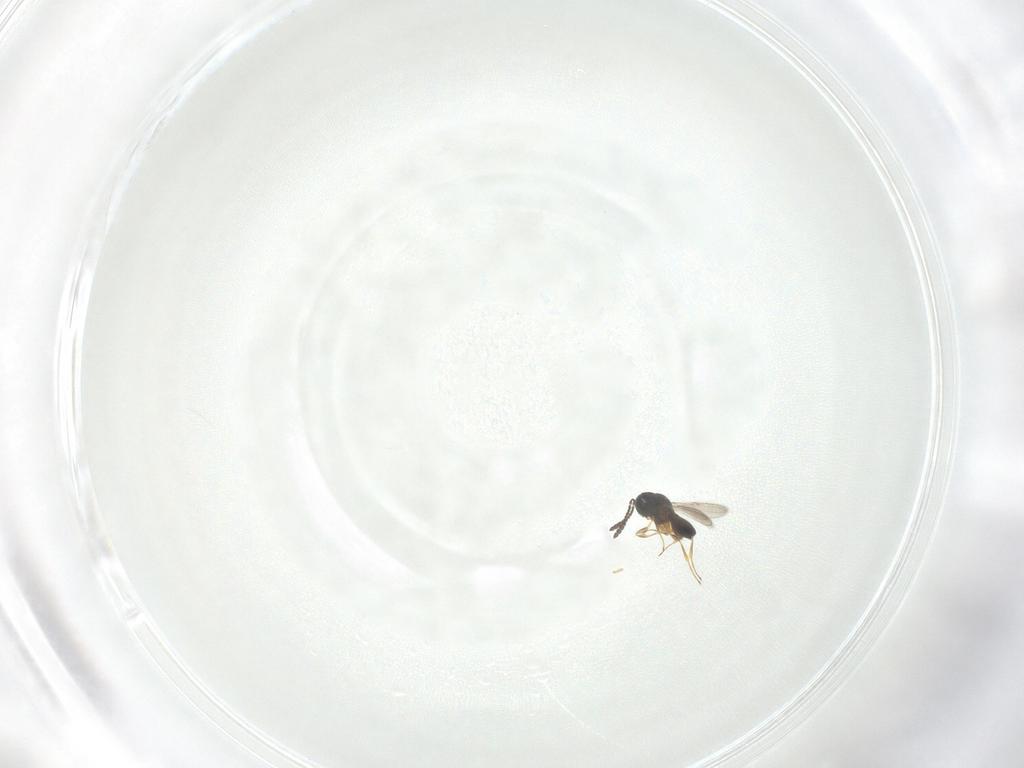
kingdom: Animalia
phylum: Arthropoda
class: Insecta
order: Hymenoptera
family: Scelionidae
